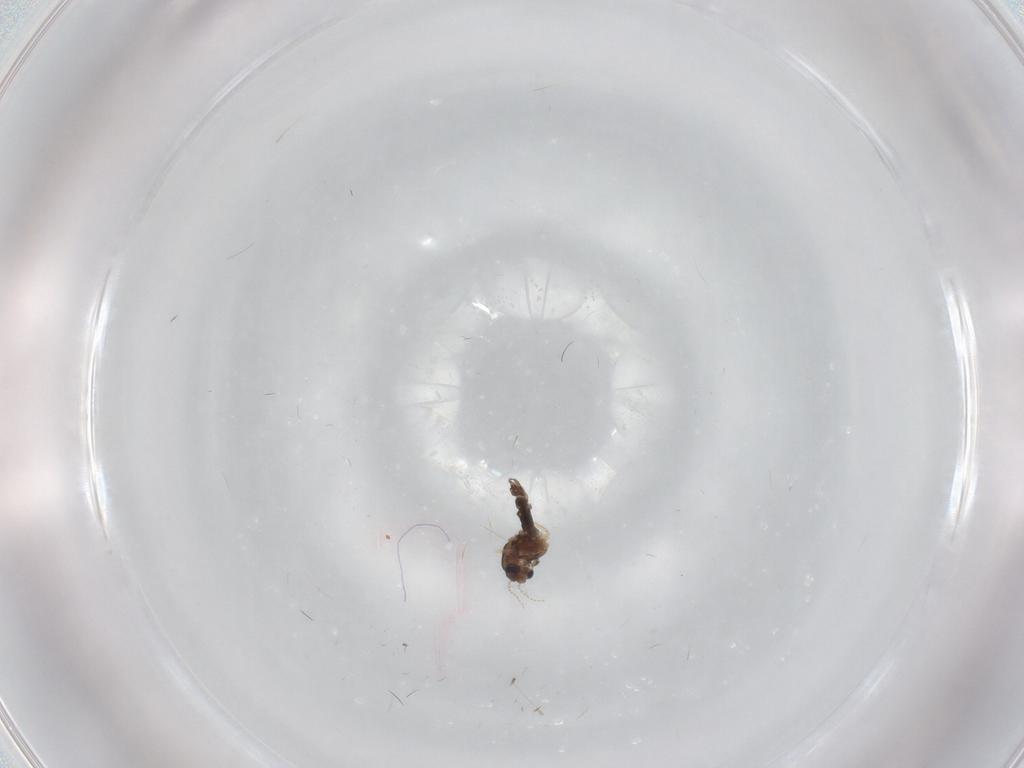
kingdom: Animalia
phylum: Arthropoda
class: Insecta
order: Diptera
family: Chironomidae
